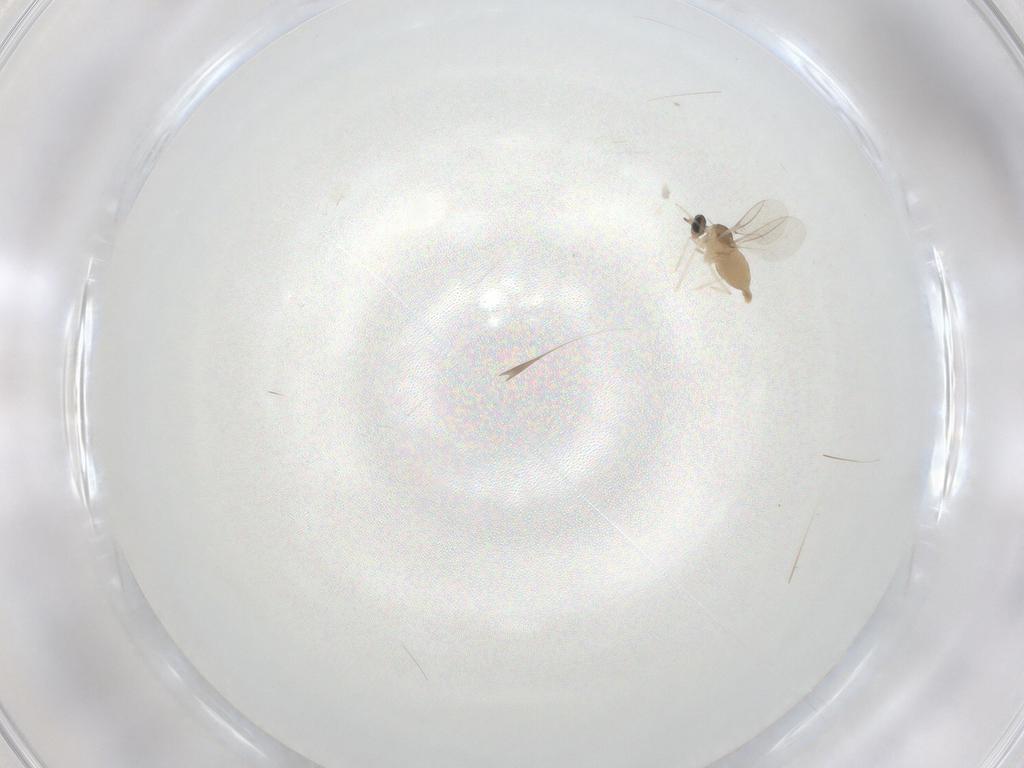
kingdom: Animalia
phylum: Arthropoda
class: Insecta
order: Diptera
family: Cecidomyiidae
